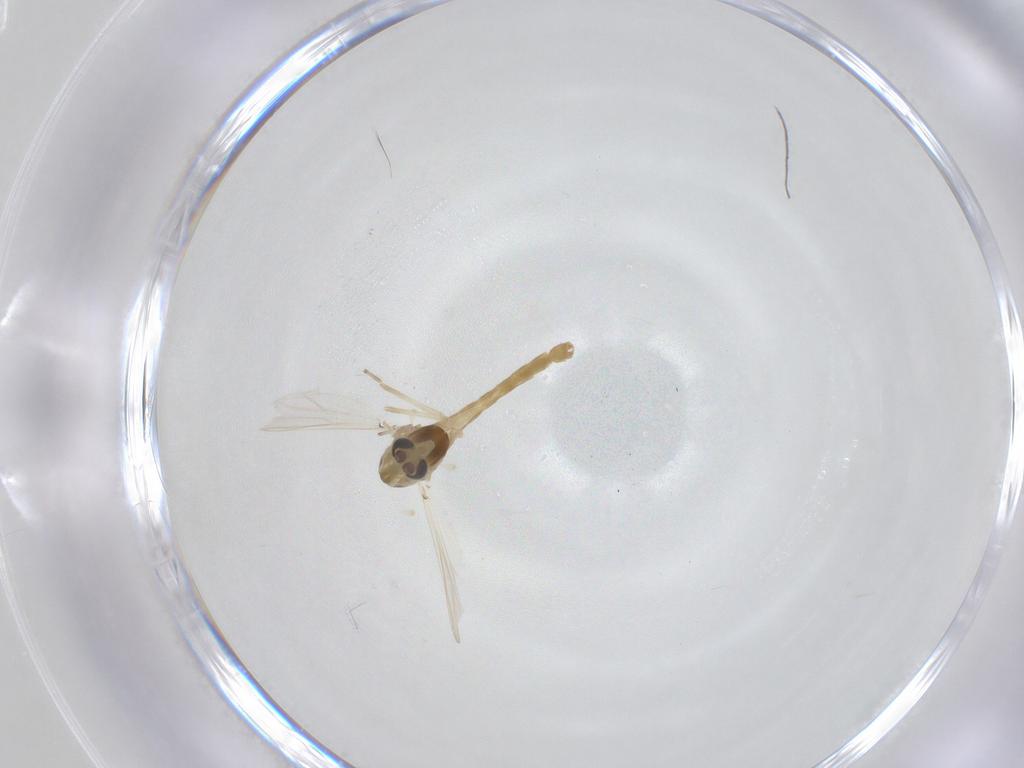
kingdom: Animalia
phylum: Arthropoda
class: Insecta
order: Diptera
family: Chironomidae
